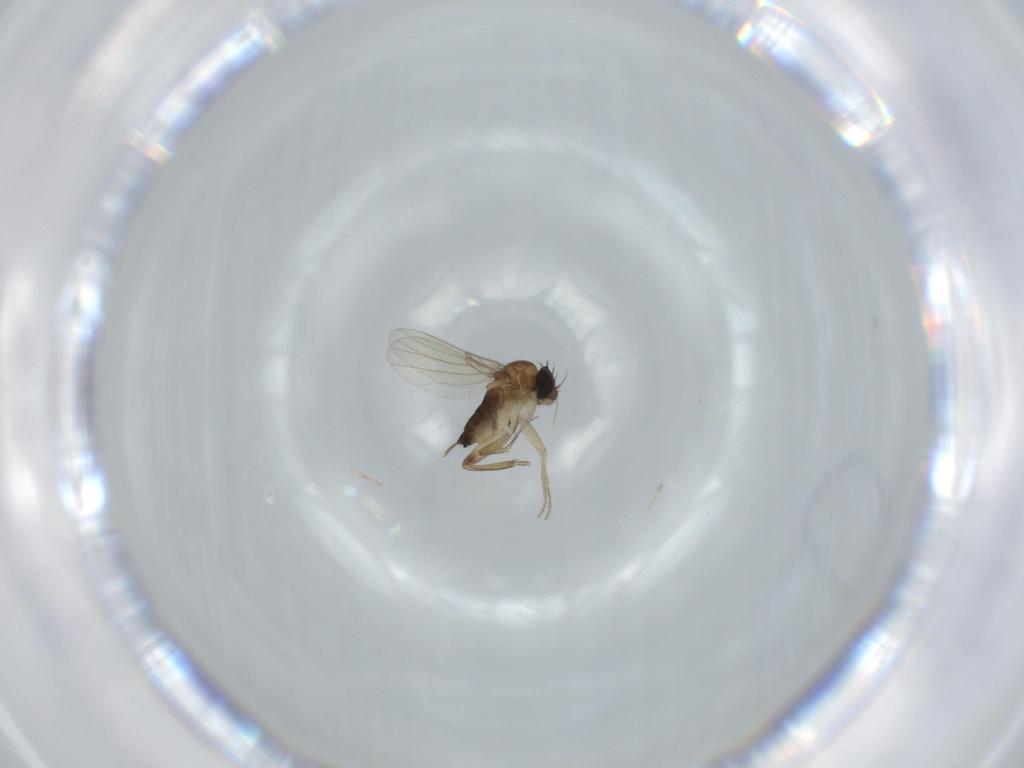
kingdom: Animalia
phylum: Arthropoda
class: Insecta
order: Diptera
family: Phoridae
